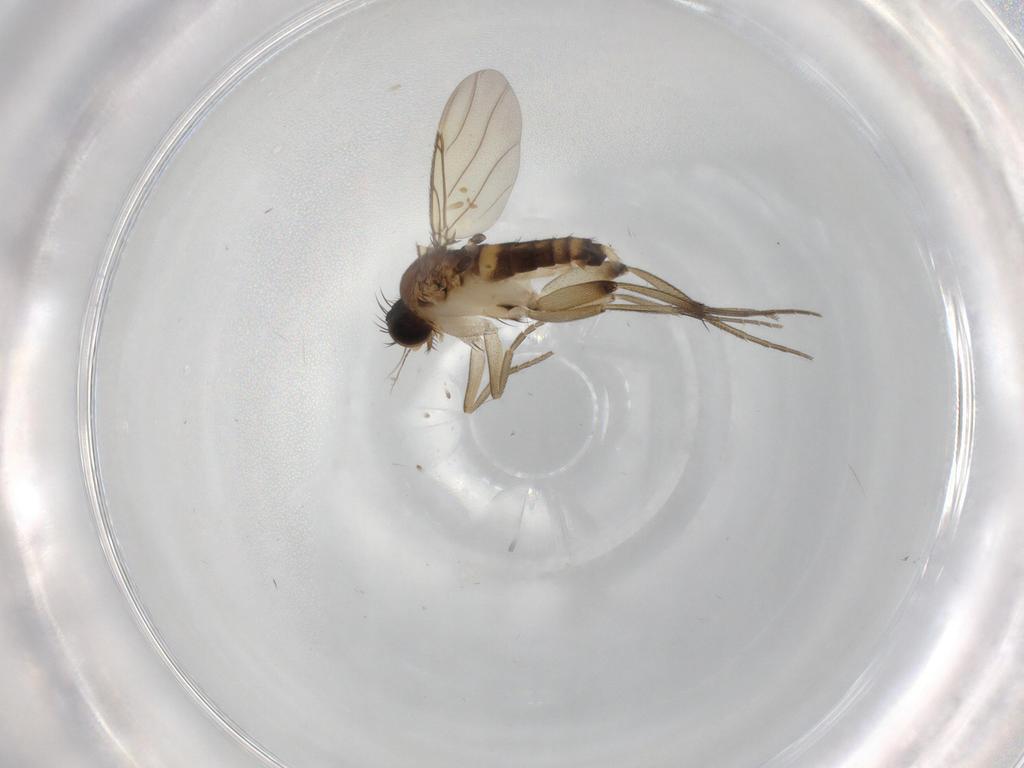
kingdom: Animalia
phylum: Arthropoda
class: Insecta
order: Diptera
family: Phoridae
